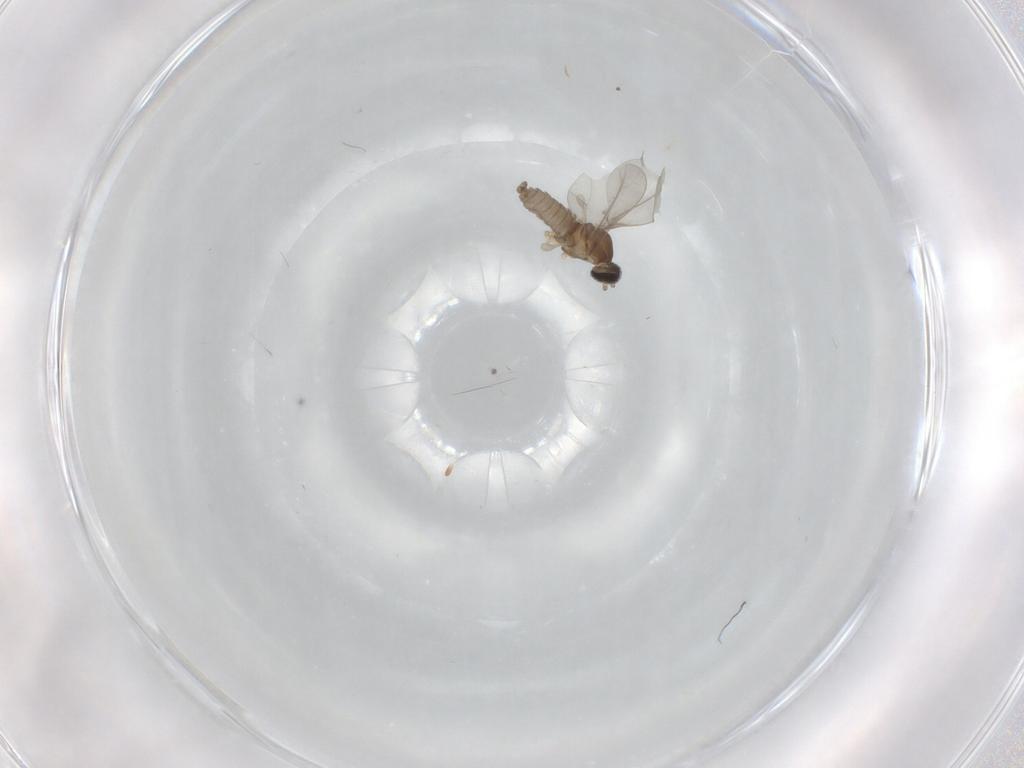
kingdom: Animalia
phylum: Arthropoda
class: Insecta
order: Diptera
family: Cecidomyiidae
